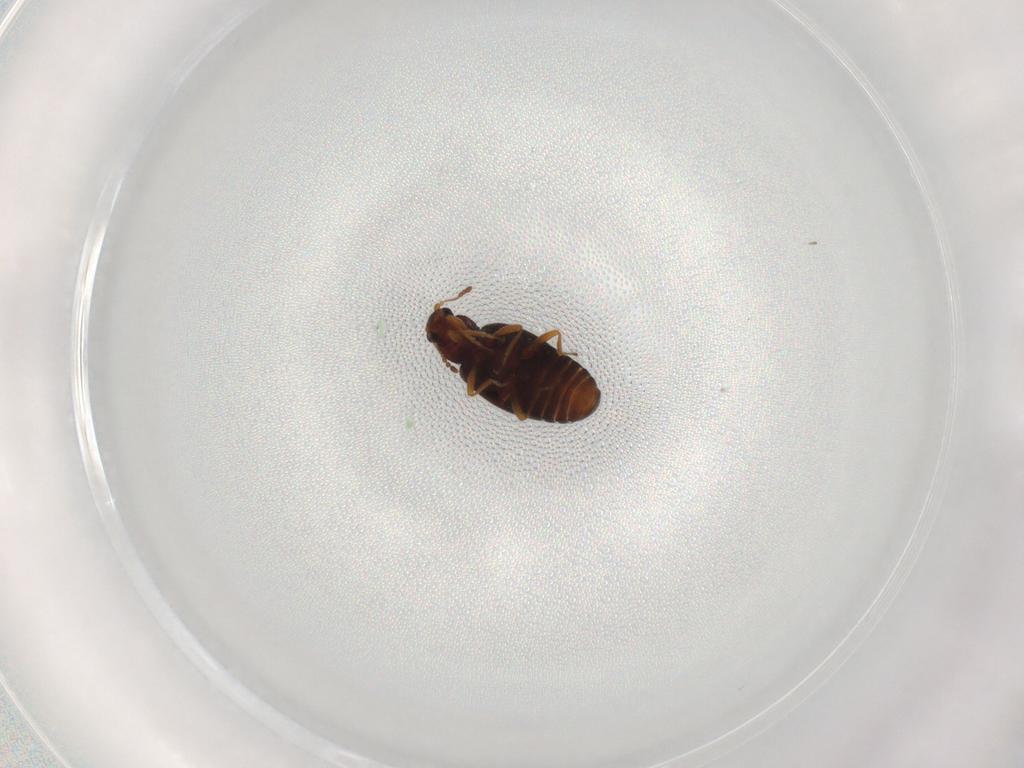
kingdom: Animalia
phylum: Arthropoda
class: Insecta
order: Coleoptera
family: Latridiidae
